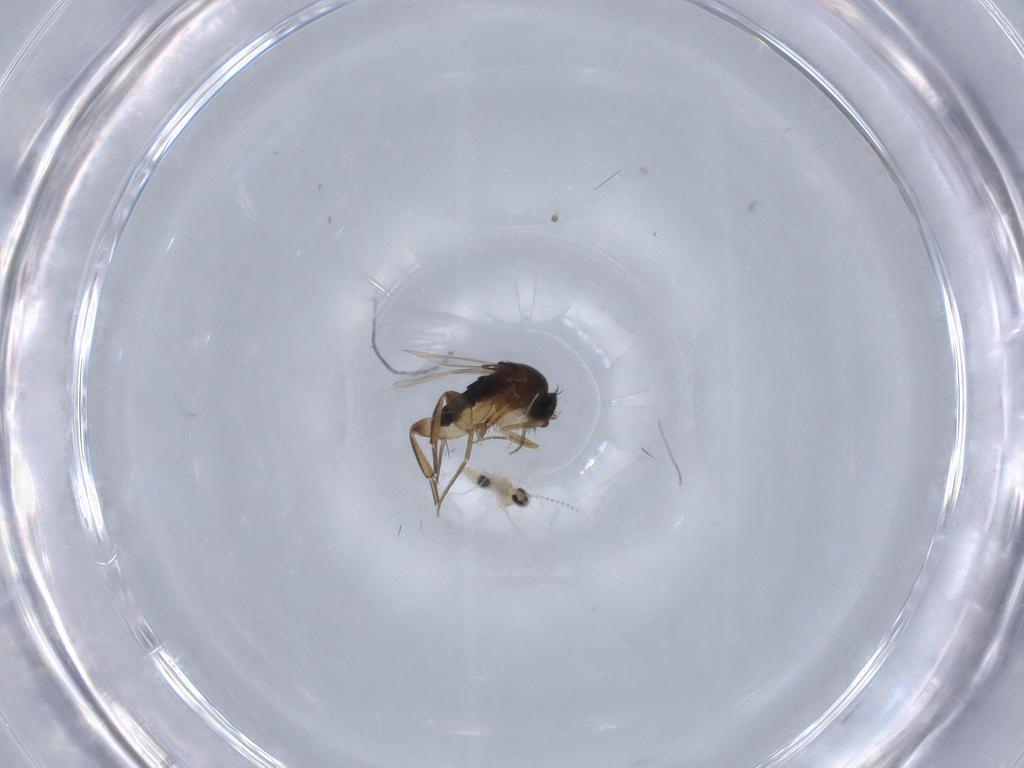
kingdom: Animalia
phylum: Arthropoda
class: Insecta
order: Diptera
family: Phoridae
